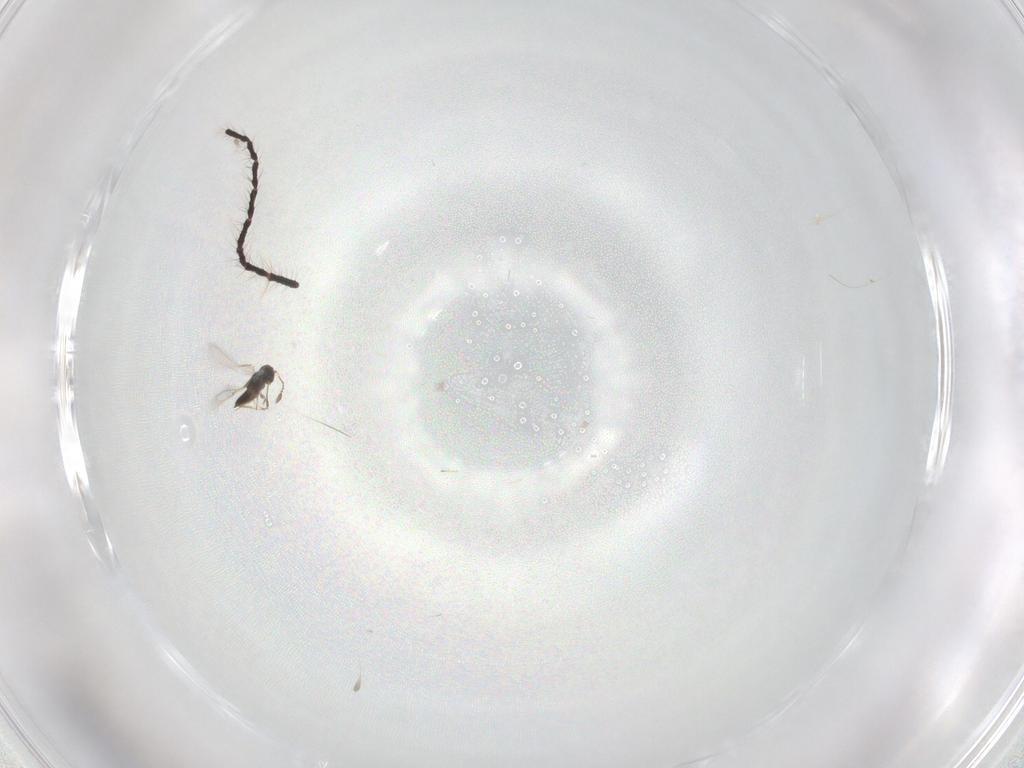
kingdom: Animalia
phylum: Arthropoda
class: Insecta
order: Hymenoptera
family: Mymaridae
